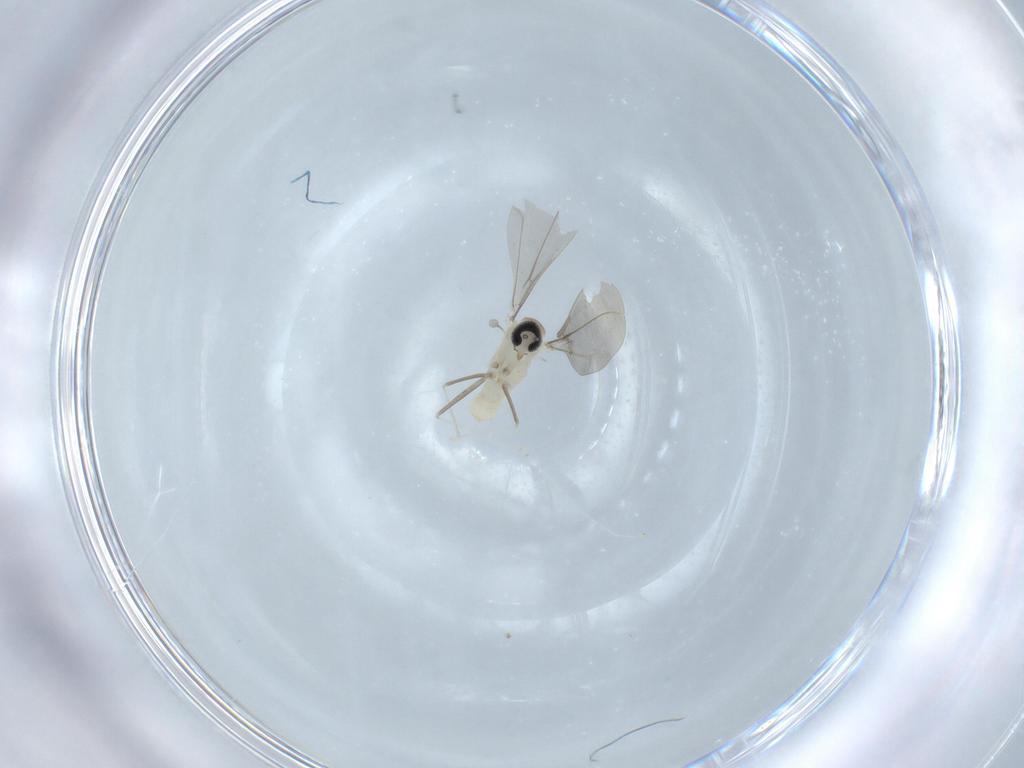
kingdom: Animalia
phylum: Arthropoda
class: Insecta
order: Diptera
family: Cecidomyiidae
